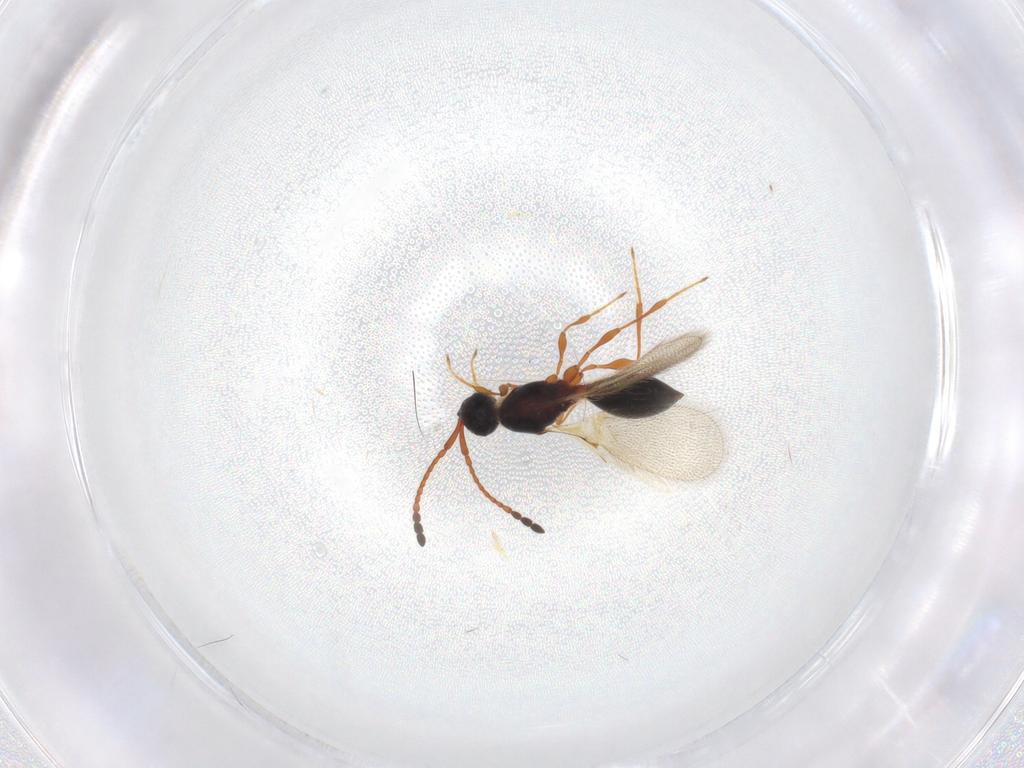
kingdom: Animalia
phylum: Arthropoda
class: Insecta
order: Hymenoptera
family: Diapriidae
